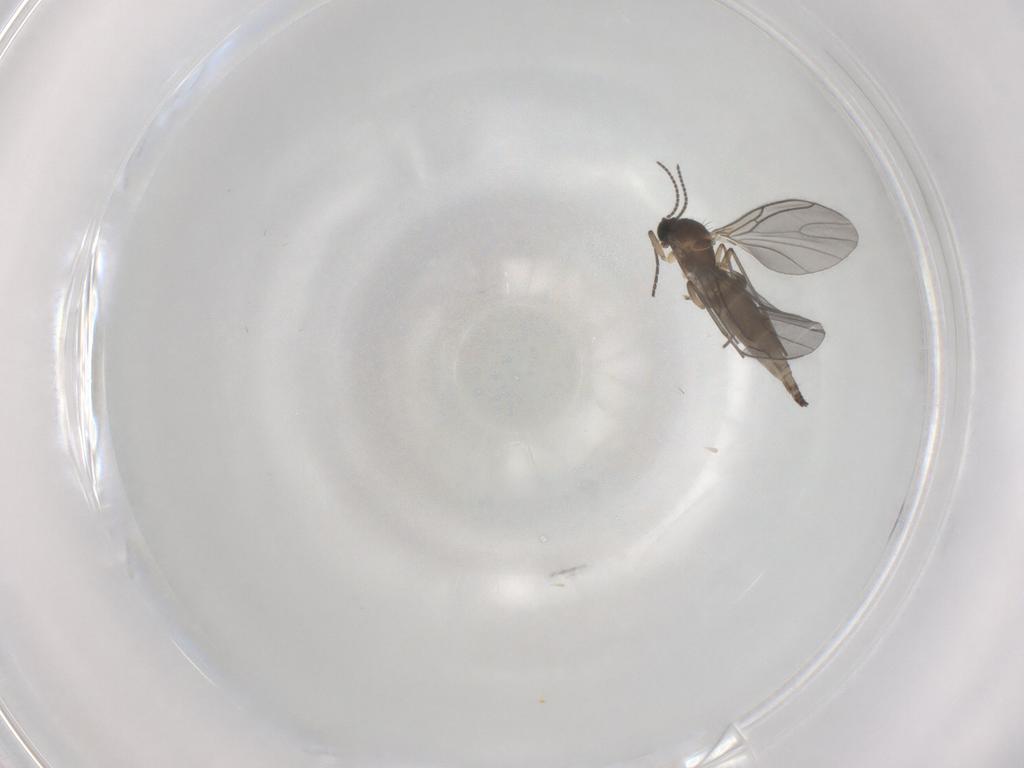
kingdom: Animalia
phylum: Arthropoda
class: Insecta
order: Diptera
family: Sciaridae
